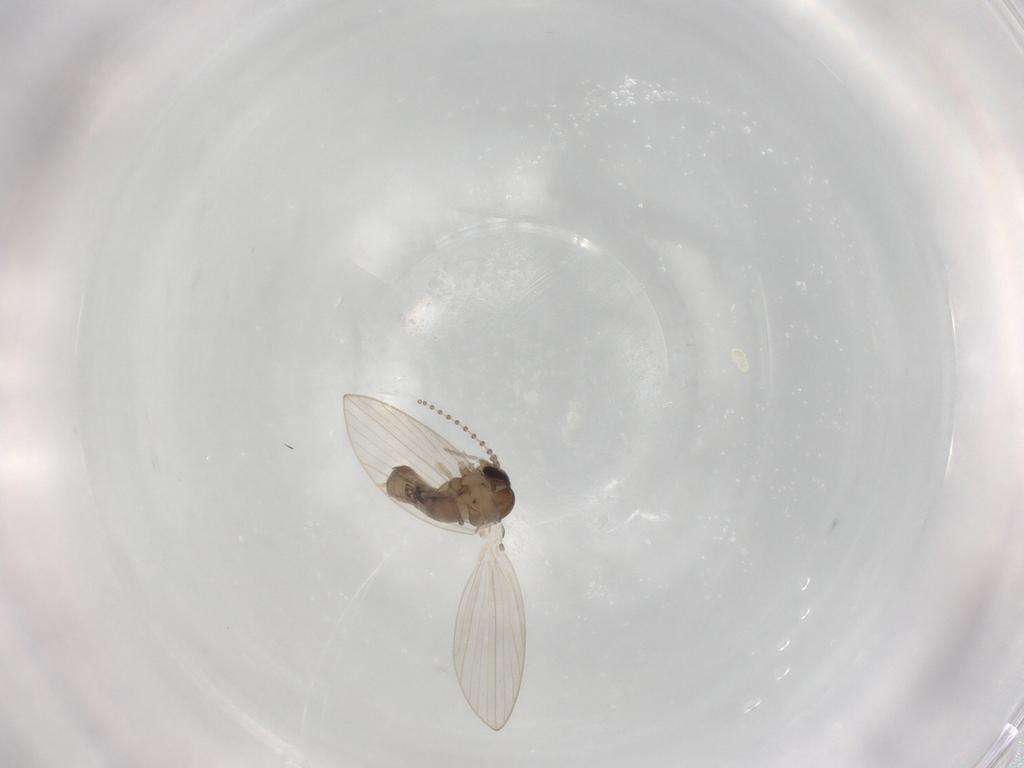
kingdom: Animalia
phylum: Arthropoda
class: Insecta
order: Diptera
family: Psychodidae
